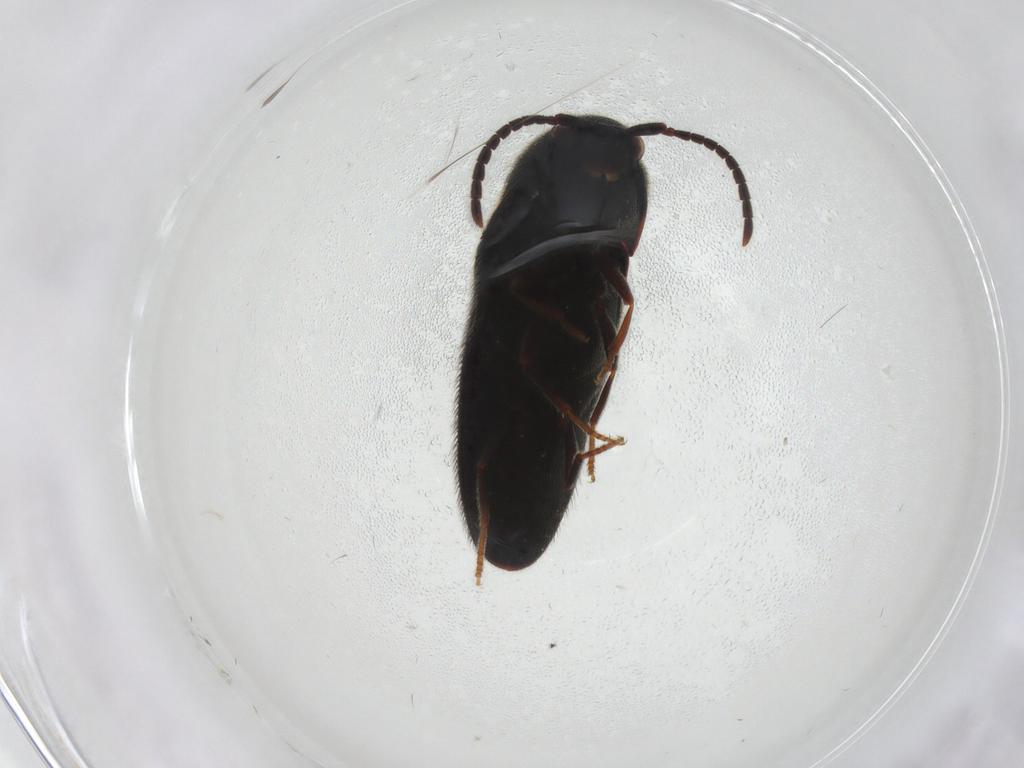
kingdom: Animalia
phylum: Arthropoda
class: Insecta
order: Coleoptera
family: Eucnemidae
